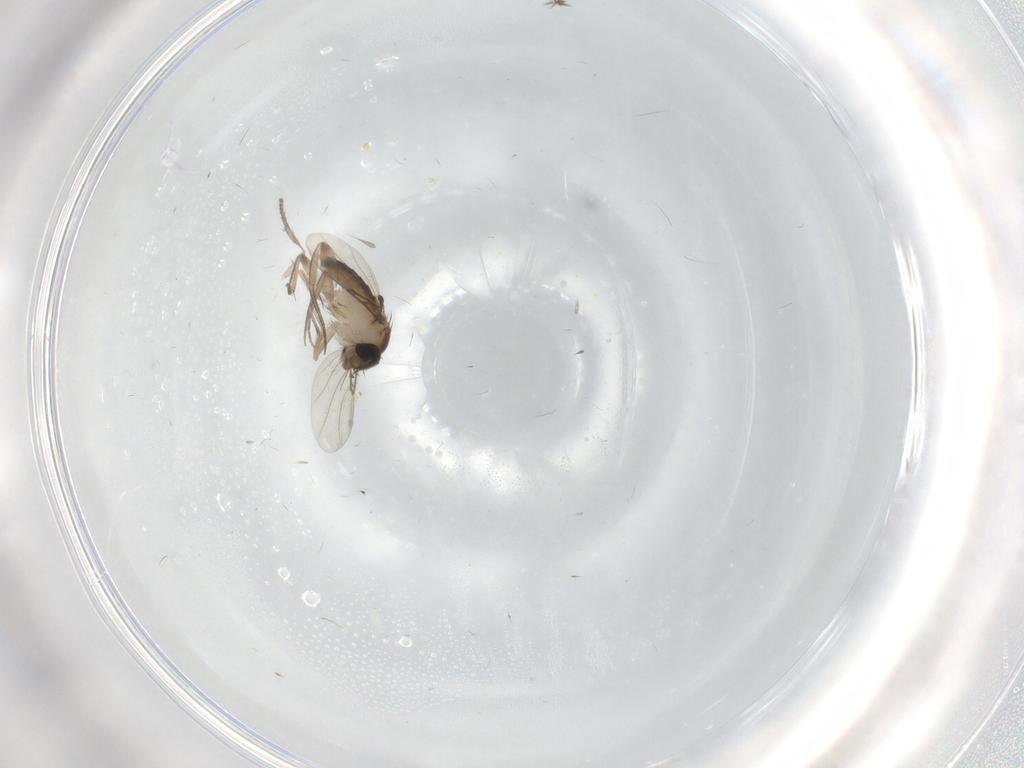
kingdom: Animalia
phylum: Arthropoda
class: Insecta
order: Diptera
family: Psychodidae
